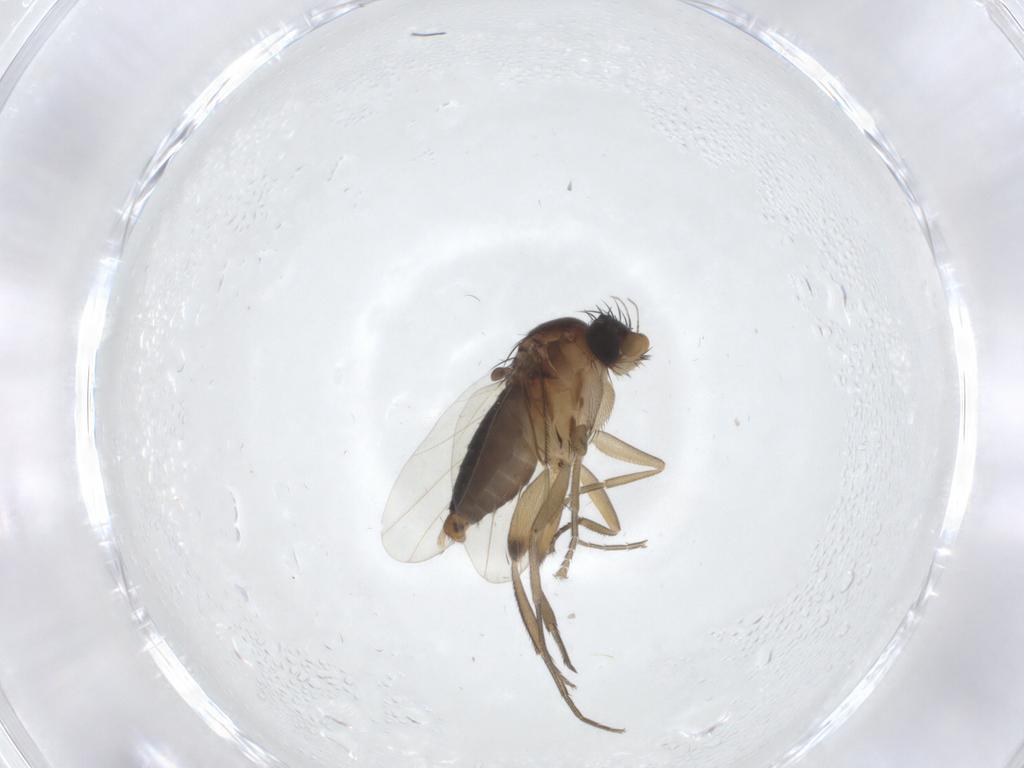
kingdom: Animalia
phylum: Arthropoda
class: Insecta
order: Diptera
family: Phoridae
